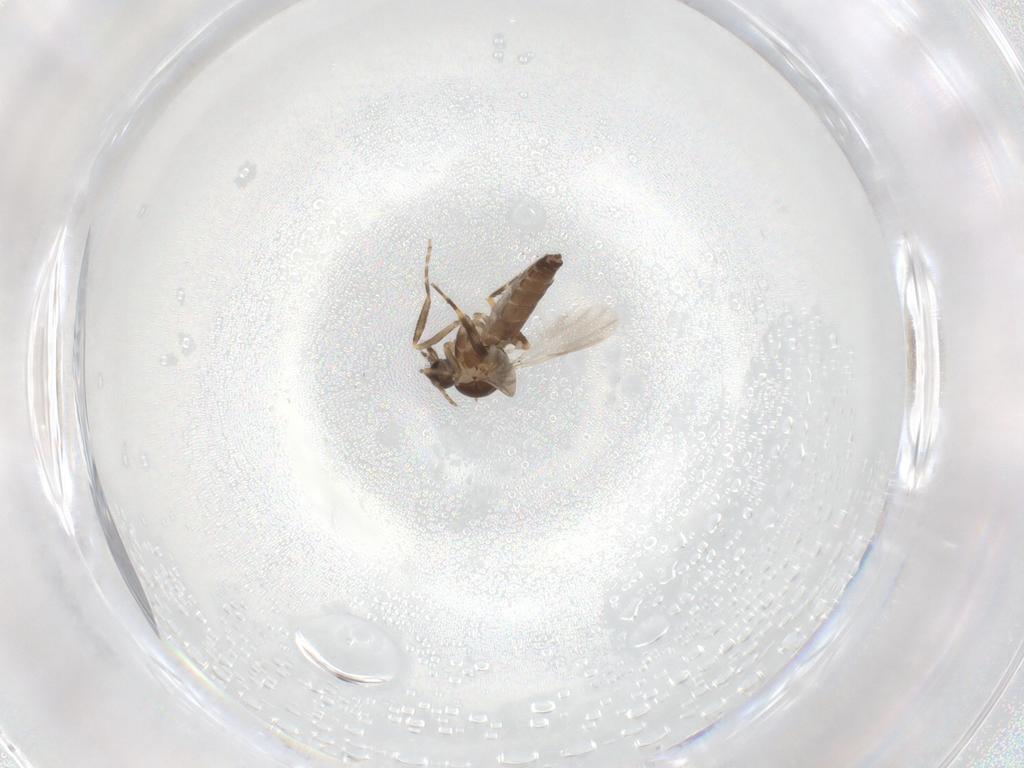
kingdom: Animalia
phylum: Arthropoda
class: Insecta
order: Diptera
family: Ceratopogonidae
